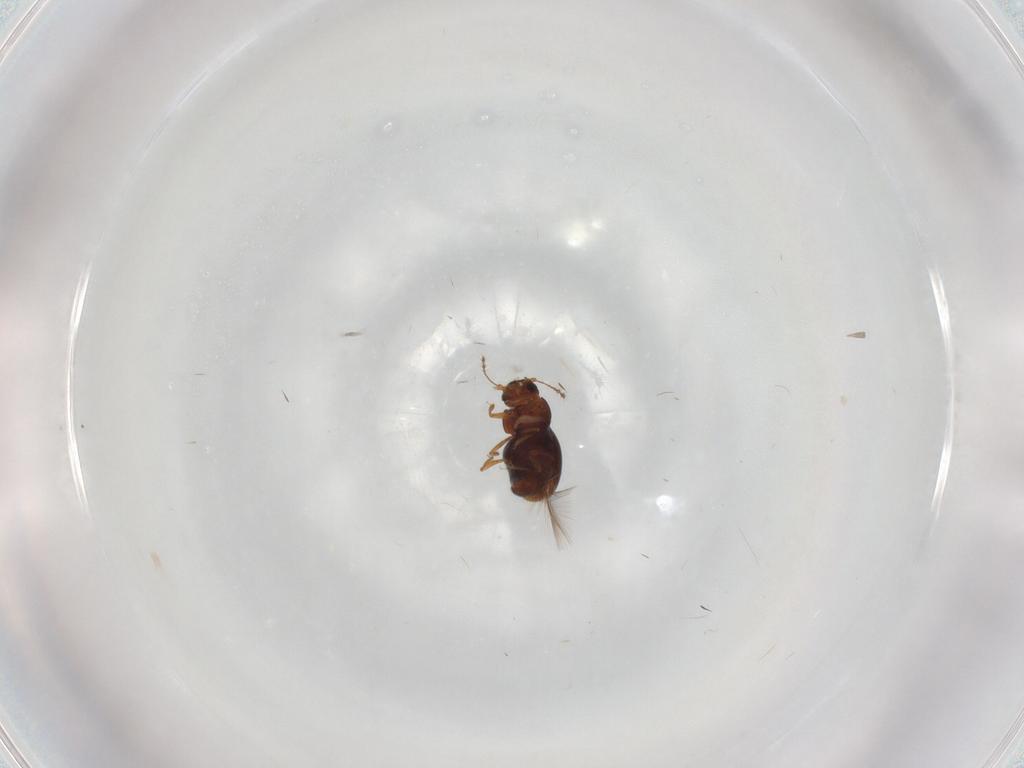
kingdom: Animalia
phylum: Arthropoda
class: Insecta
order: Coleoptera
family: Ptiliidae
